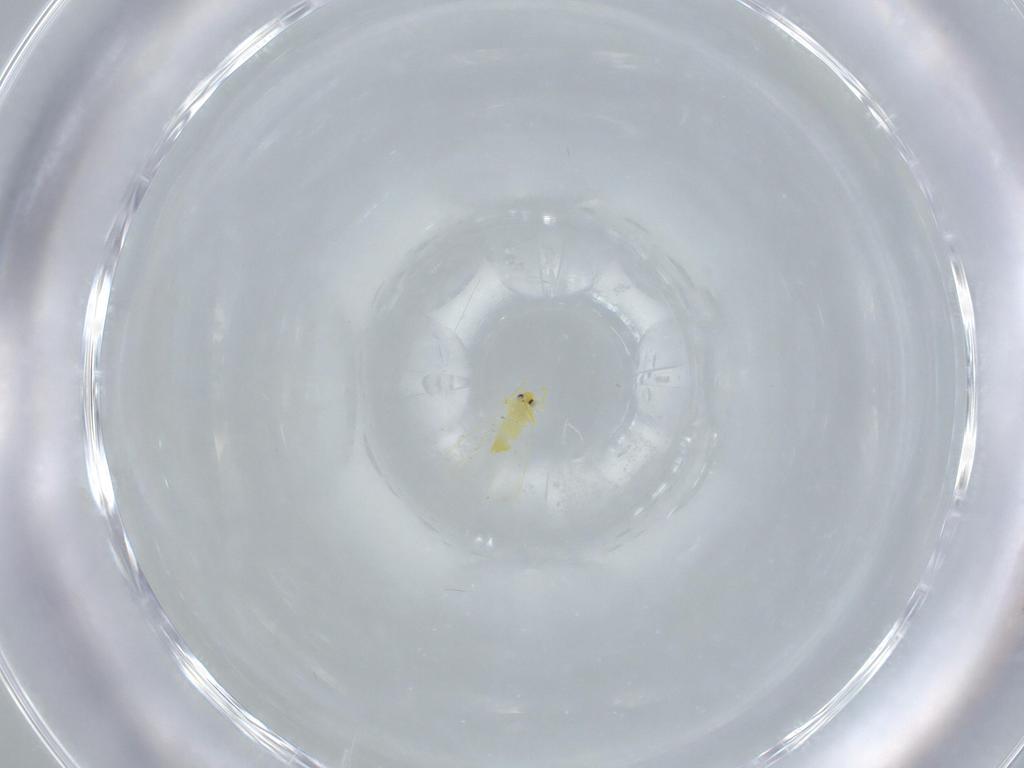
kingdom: Animalia
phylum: Arthropoda
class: Insecta
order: Hemiptera
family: Aleyrodidae
